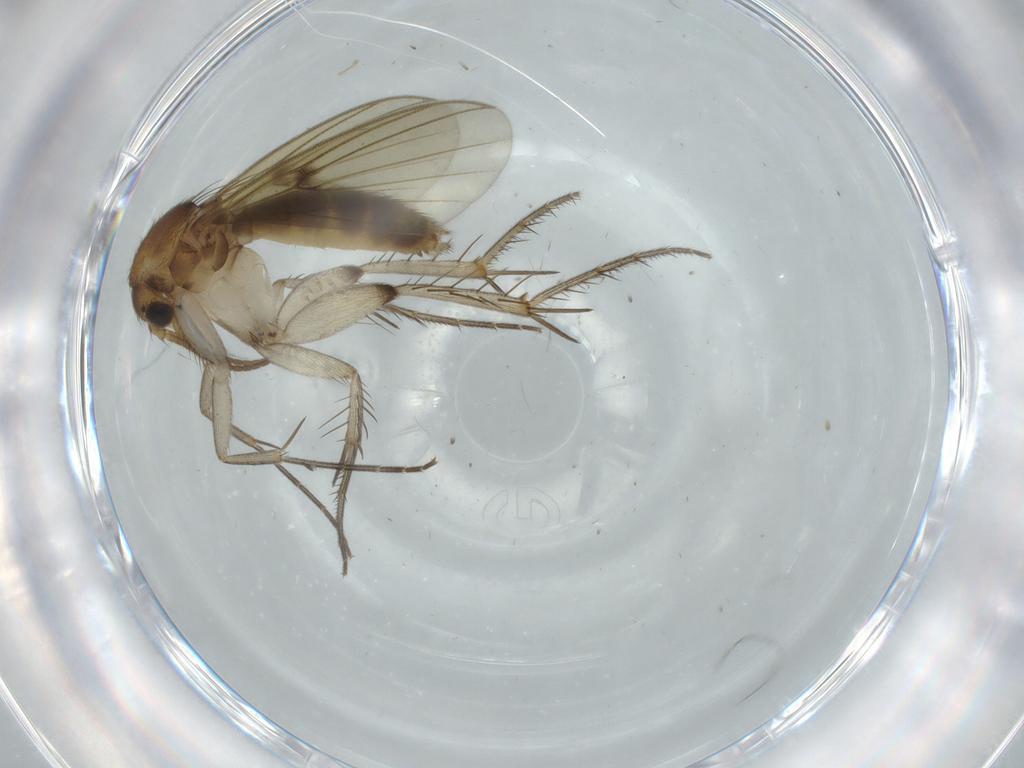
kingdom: Animalia
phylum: Arthropoda
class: Insecta
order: Diptera
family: Mycetophilidae
